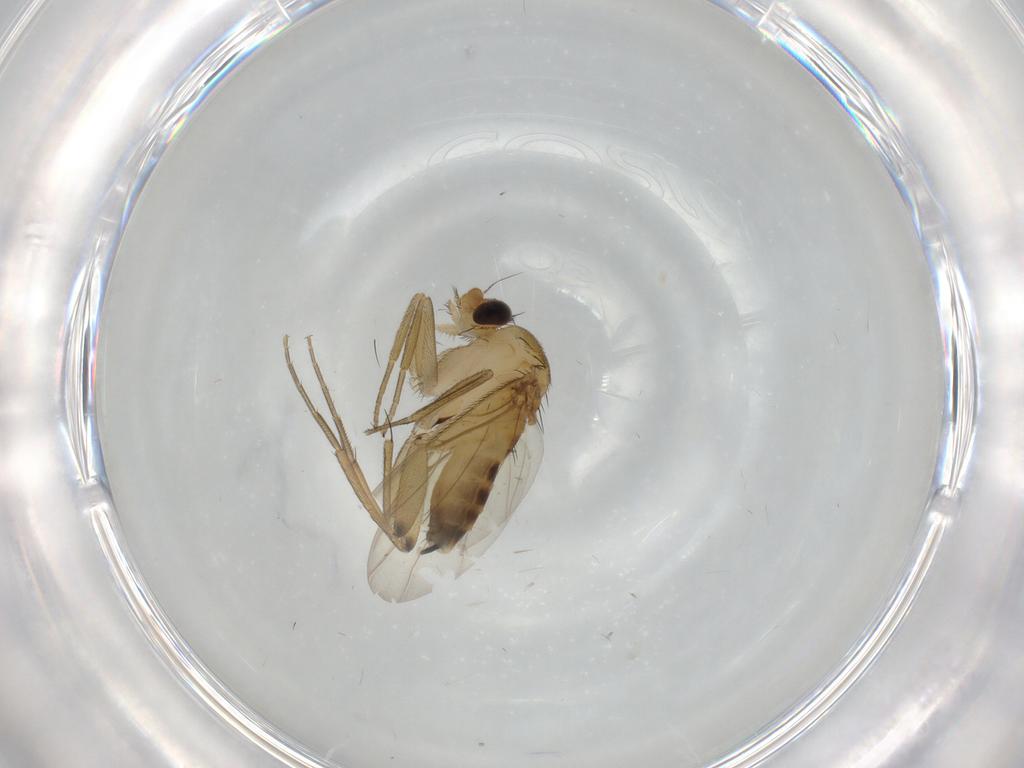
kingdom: Animalia
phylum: Arthropoda
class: Insecta
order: Diptera
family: Phoridae
